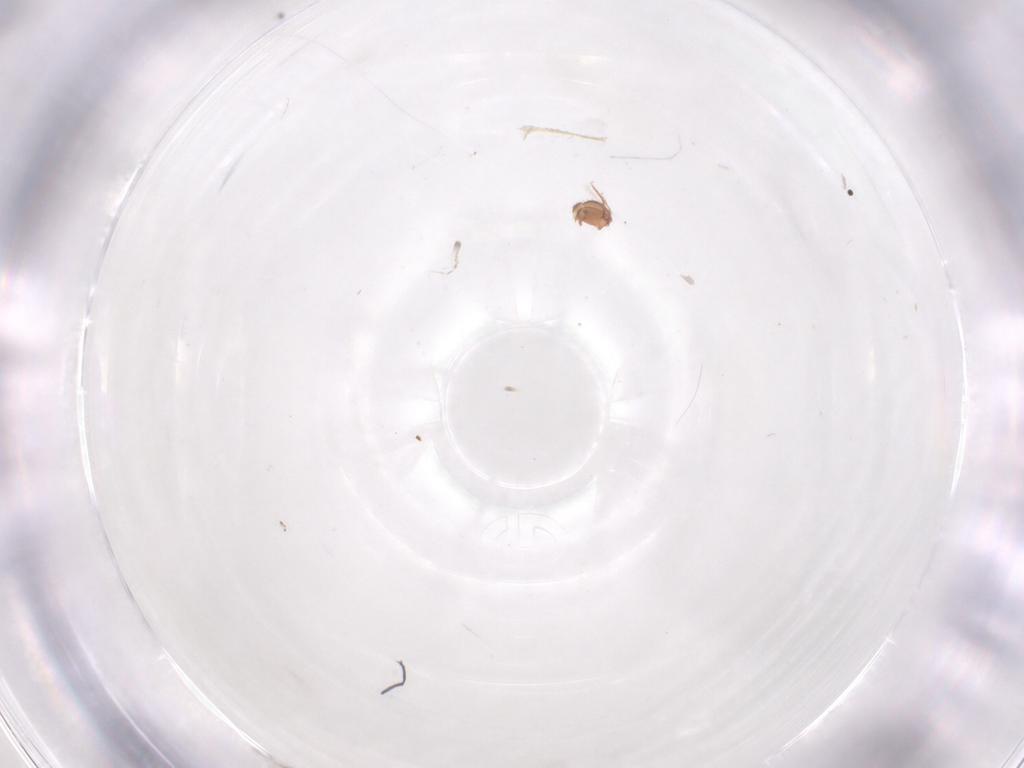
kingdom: Animalia
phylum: Arthropoda
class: Arachnida
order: Sarcoptiformes
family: Oribatulidae
